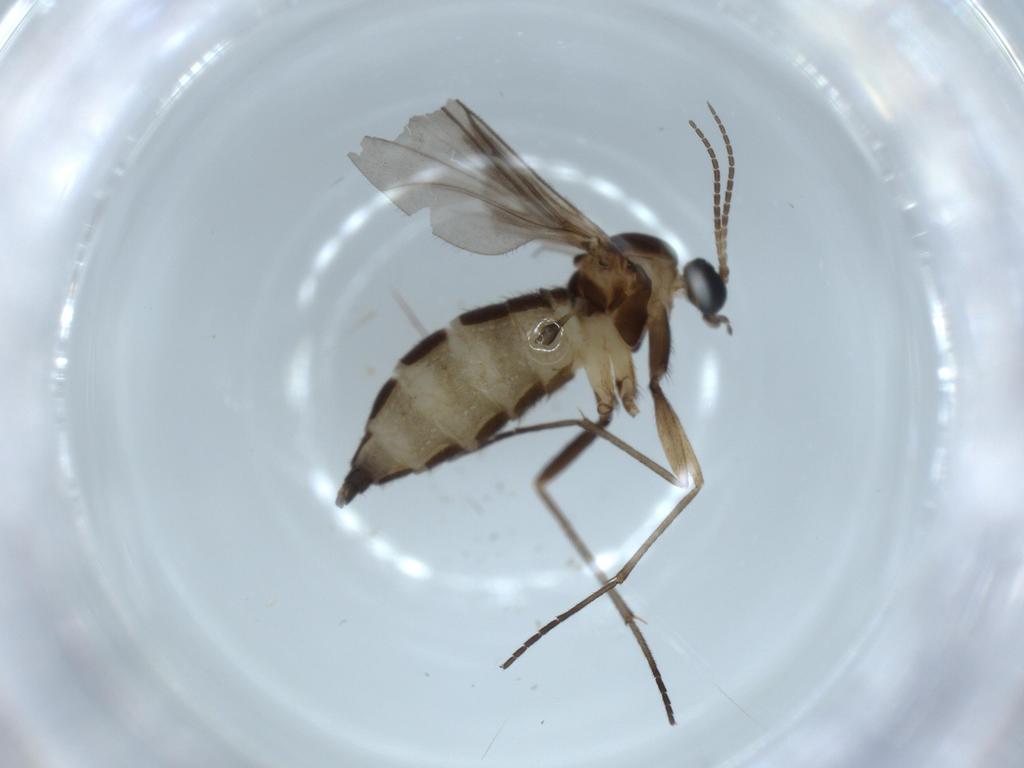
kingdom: Animalia
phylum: Arthropoda
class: Insecta
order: Diptera
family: Sciaridae
